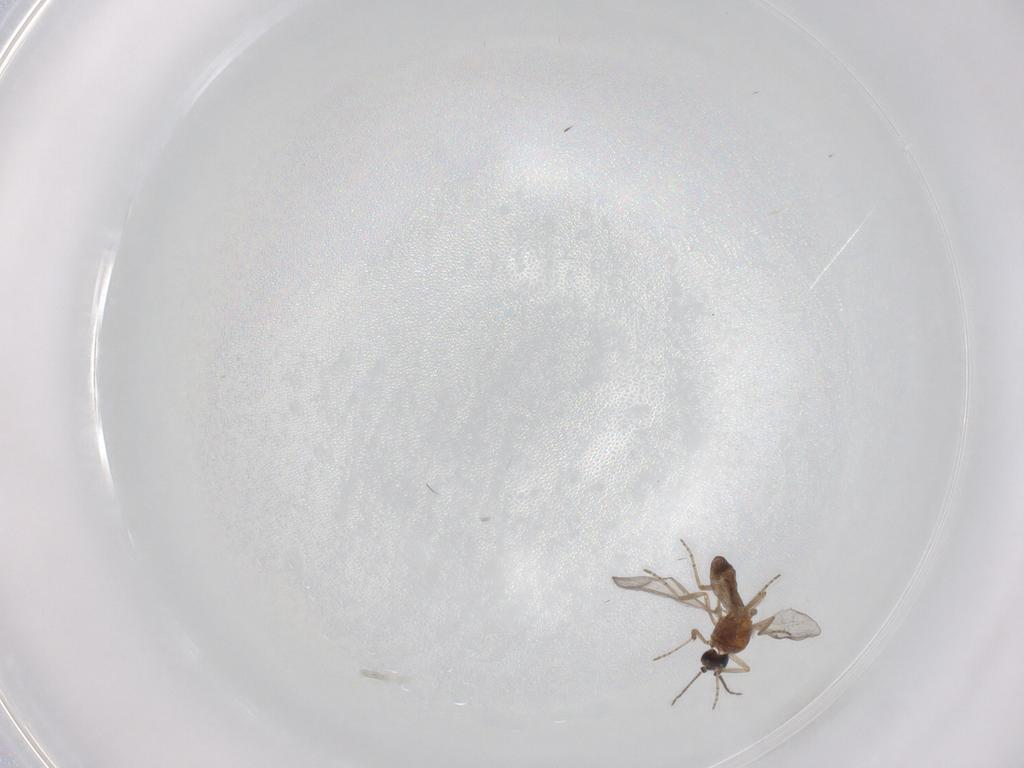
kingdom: Animalia
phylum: Arthropoda
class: Insecta
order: Diptera
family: Ceratopogonidae
